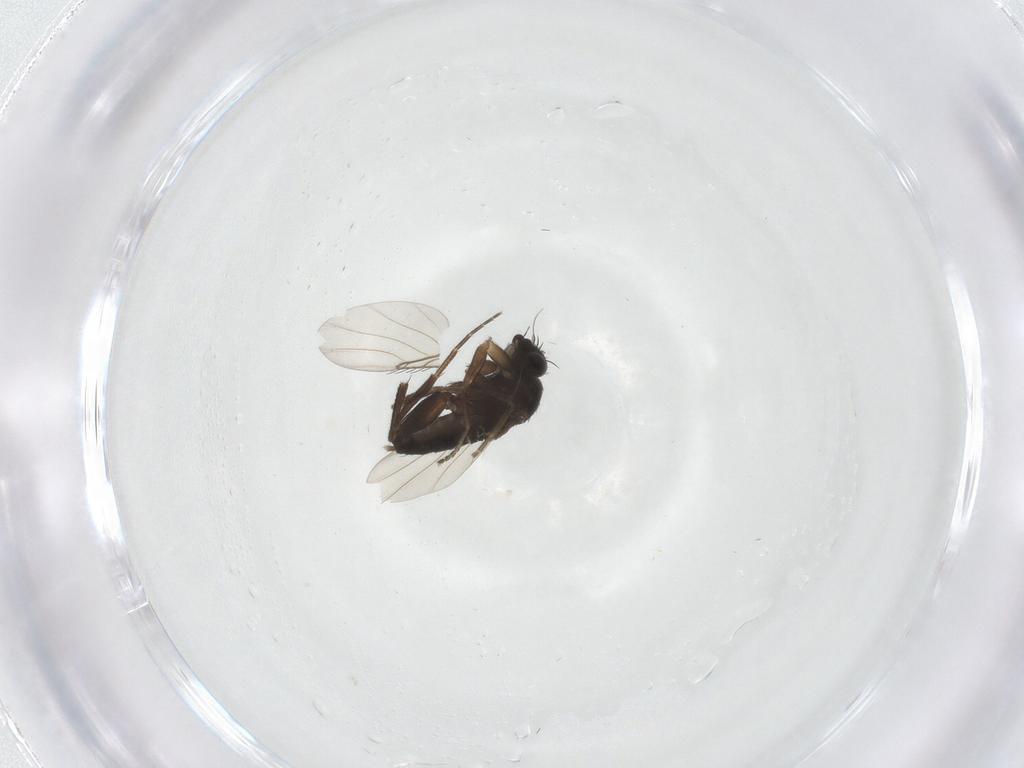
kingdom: Animalia
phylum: Arthropoda
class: Insecta
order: Diptera
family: Phoridae
